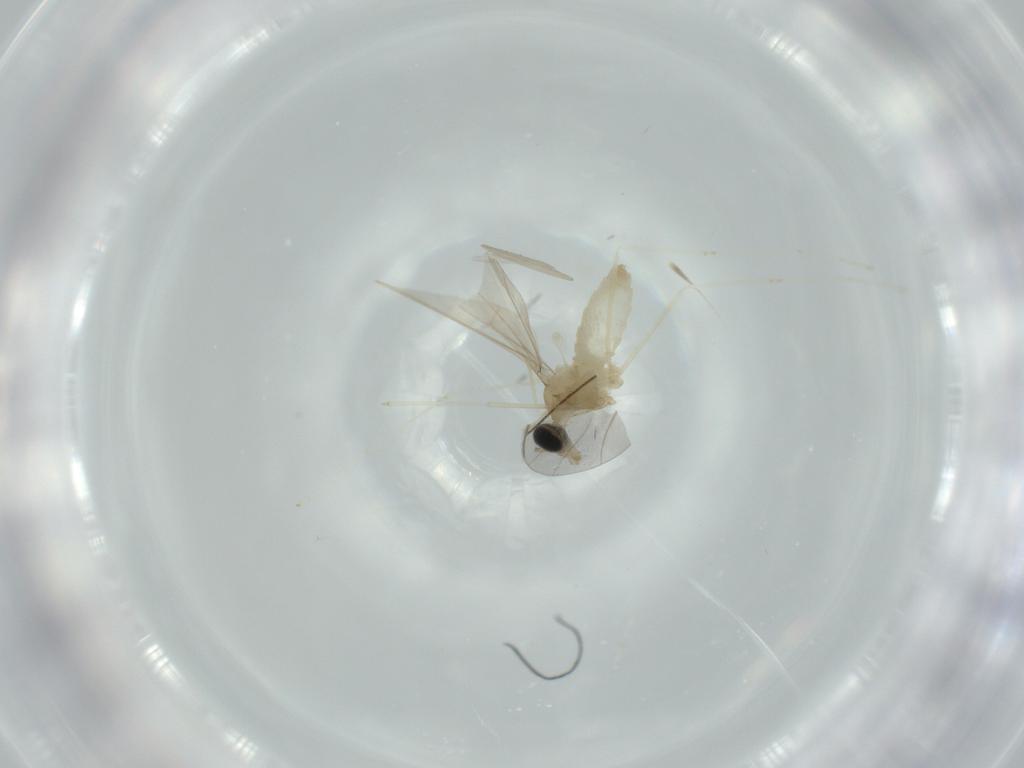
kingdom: Animalia
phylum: Arthropoda
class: Insecta
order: Diptera
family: Cecidomyiidae
